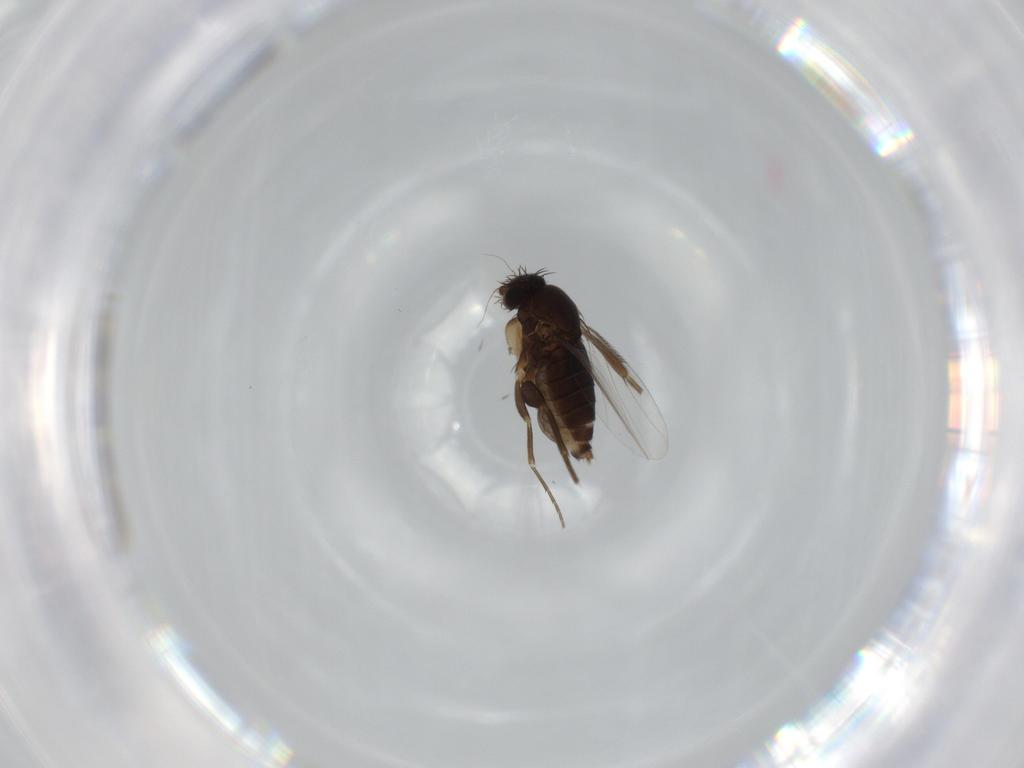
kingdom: Animalia
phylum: Arthropoda
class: Insecta
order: Diptera
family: Phoridae
